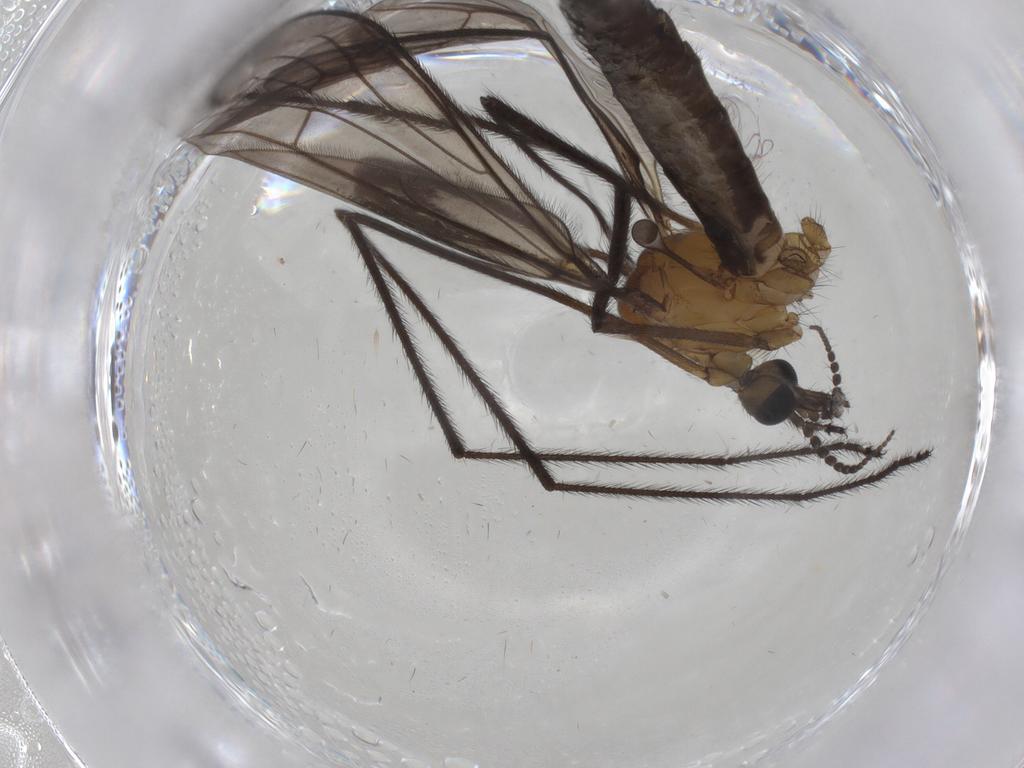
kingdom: Animalia
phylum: Arthropoda
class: Insecta
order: Diptera
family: Limoniidae
